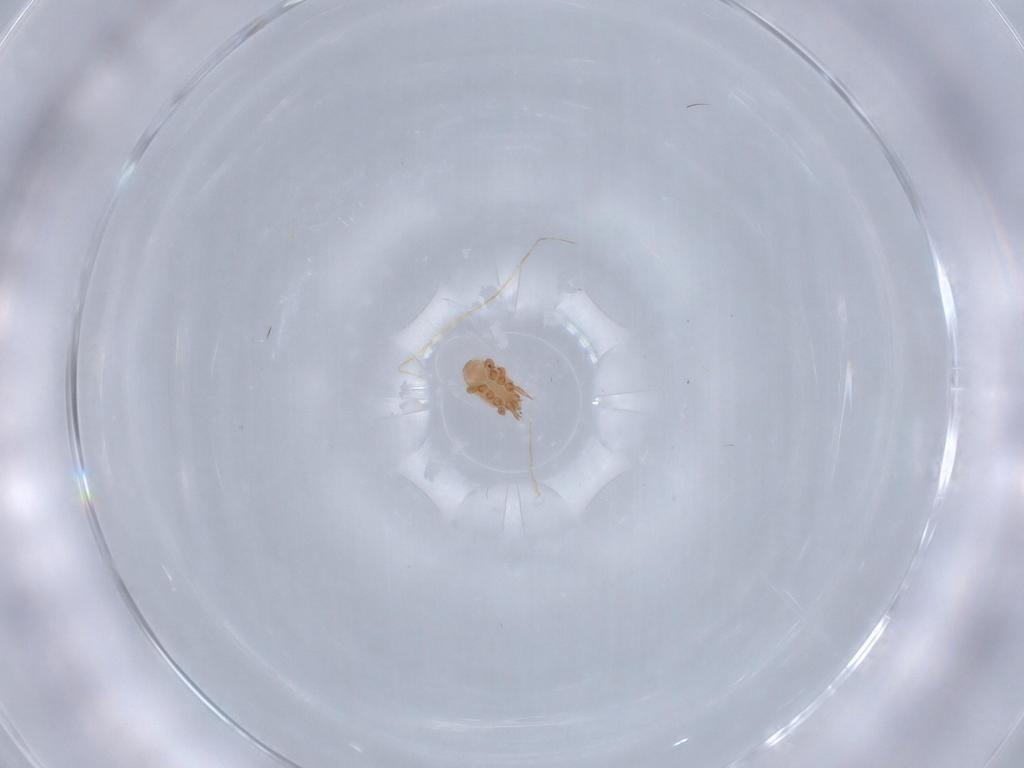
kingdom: Animalia
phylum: Arthropoda
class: Arachnida
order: Mesostigmata
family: Dinychidae
